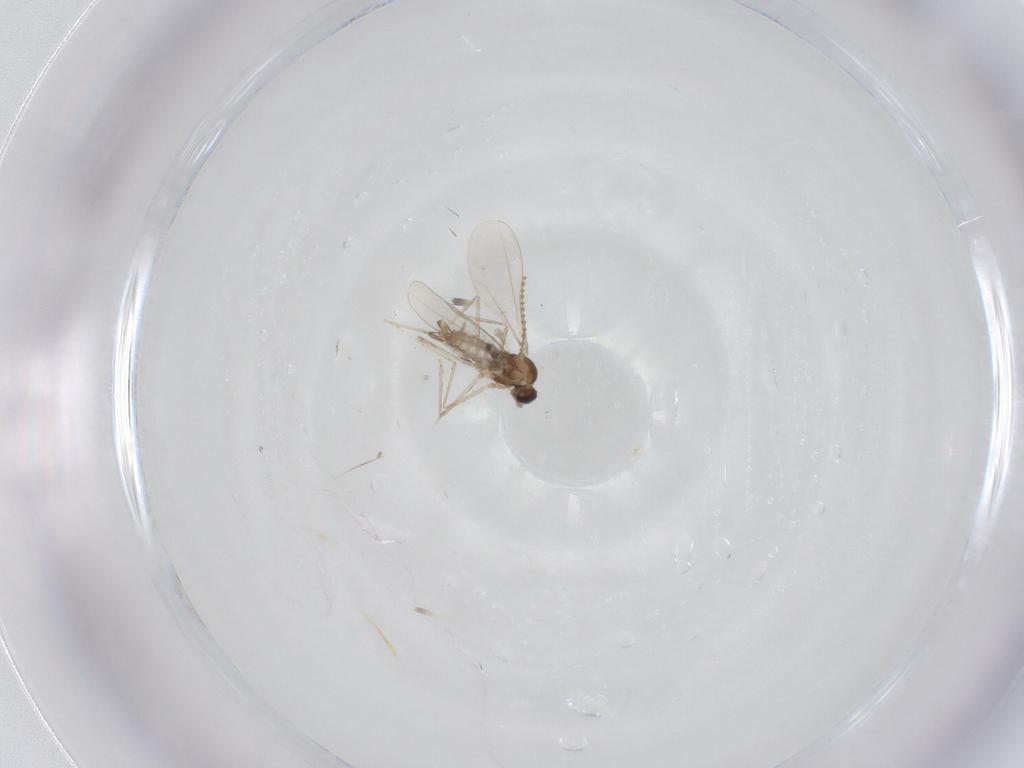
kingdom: Animalia
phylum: Arthropoda
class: Insecta
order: Diptera
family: Cecidomyiidae
